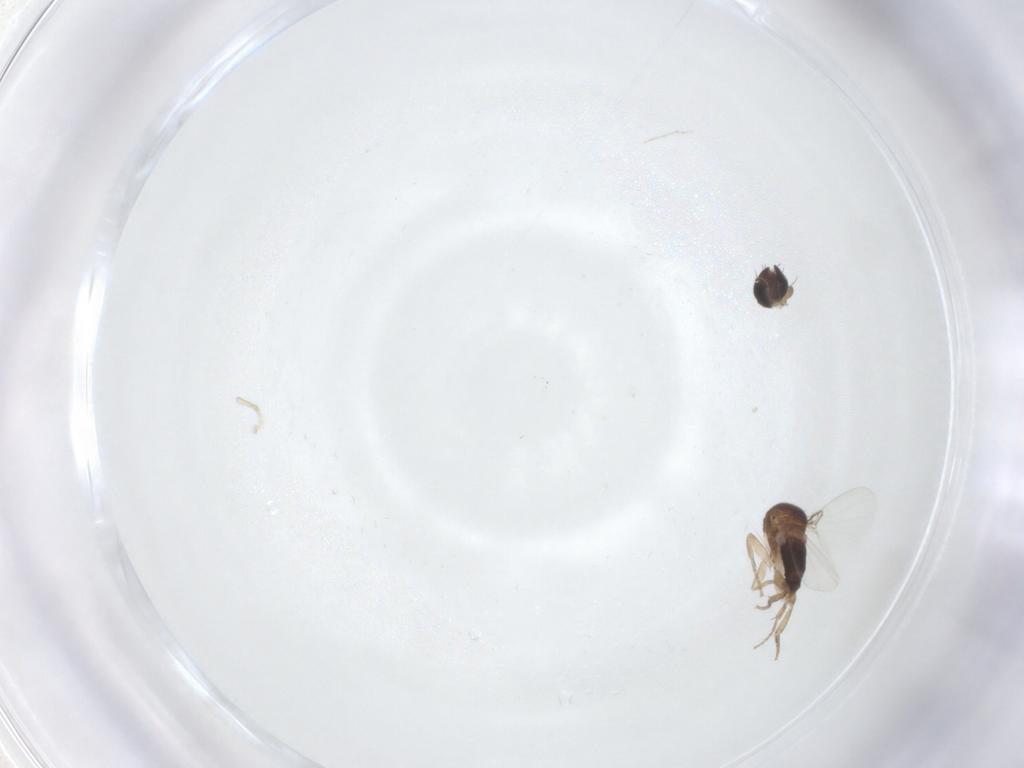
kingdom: Animalia
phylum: Arthropoda
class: Insecta
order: Diptera
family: Phoridae
